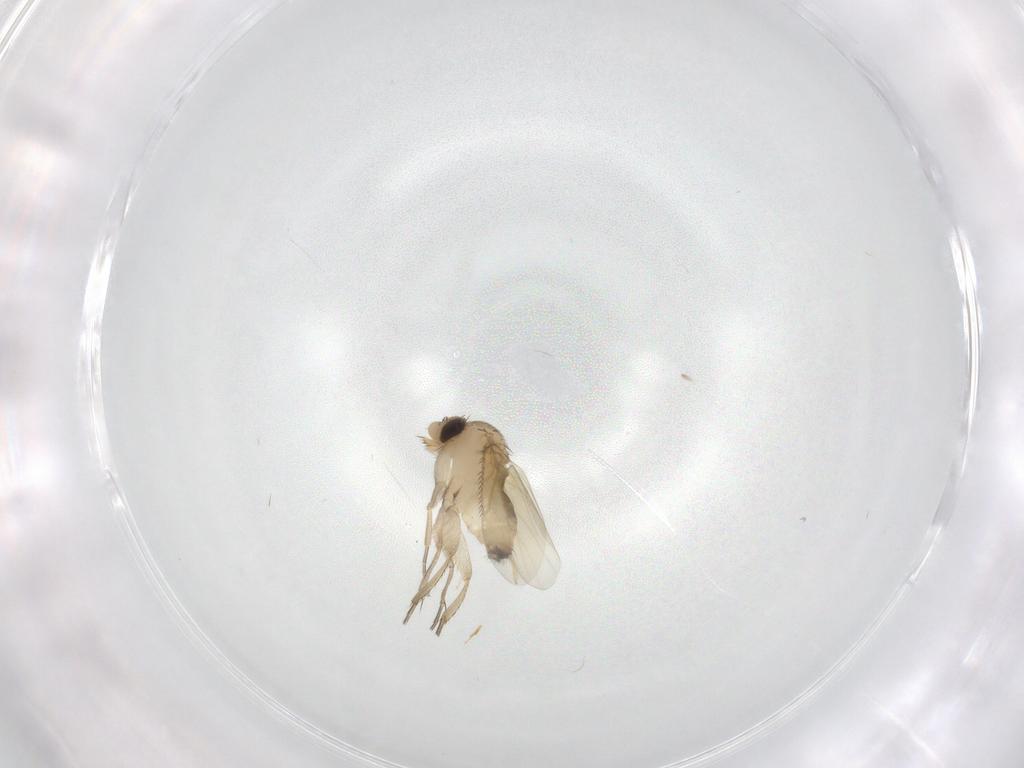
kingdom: Animalia
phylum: Arthropoda
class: Insecta
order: Diptera
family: Phoridae
